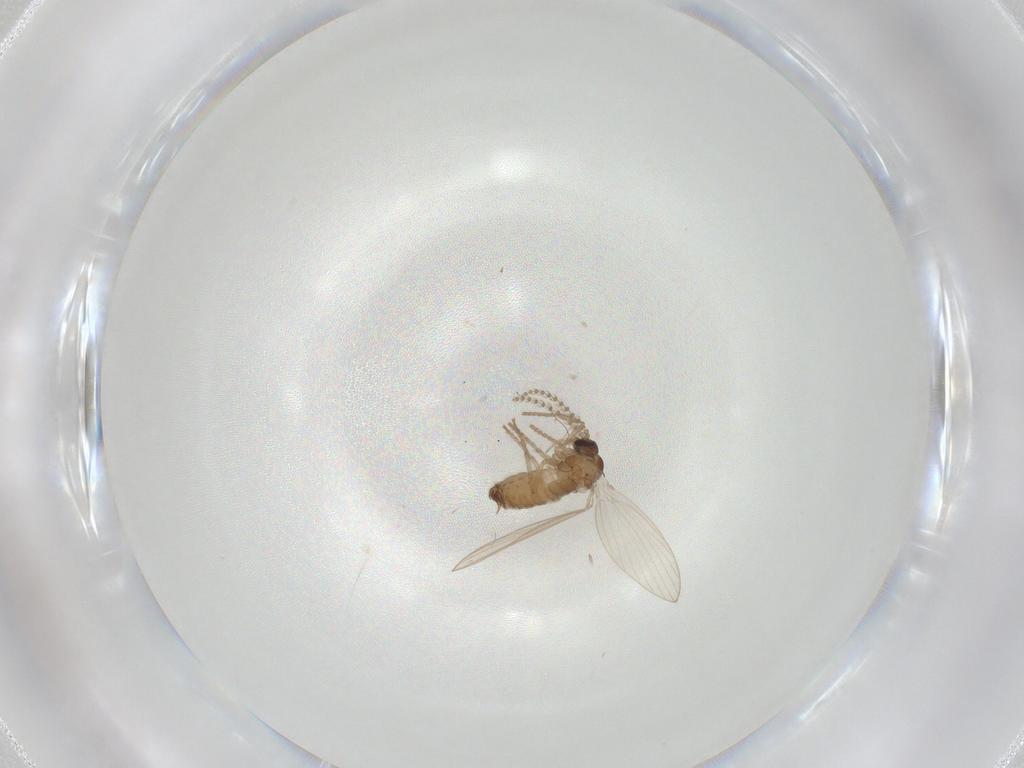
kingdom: Animalia
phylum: Arthropoda
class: Insecta
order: Diptera
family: Psychodidae
